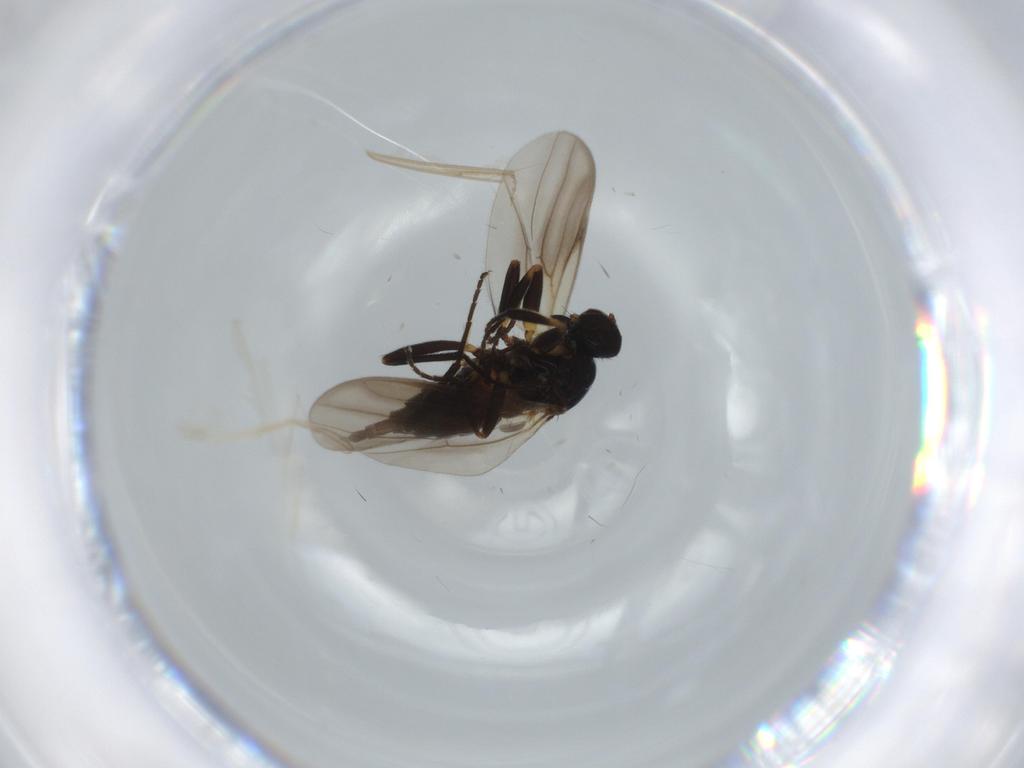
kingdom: Animalia
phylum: Arthropoda
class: Insecta
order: Diptera
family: Hybotidae
